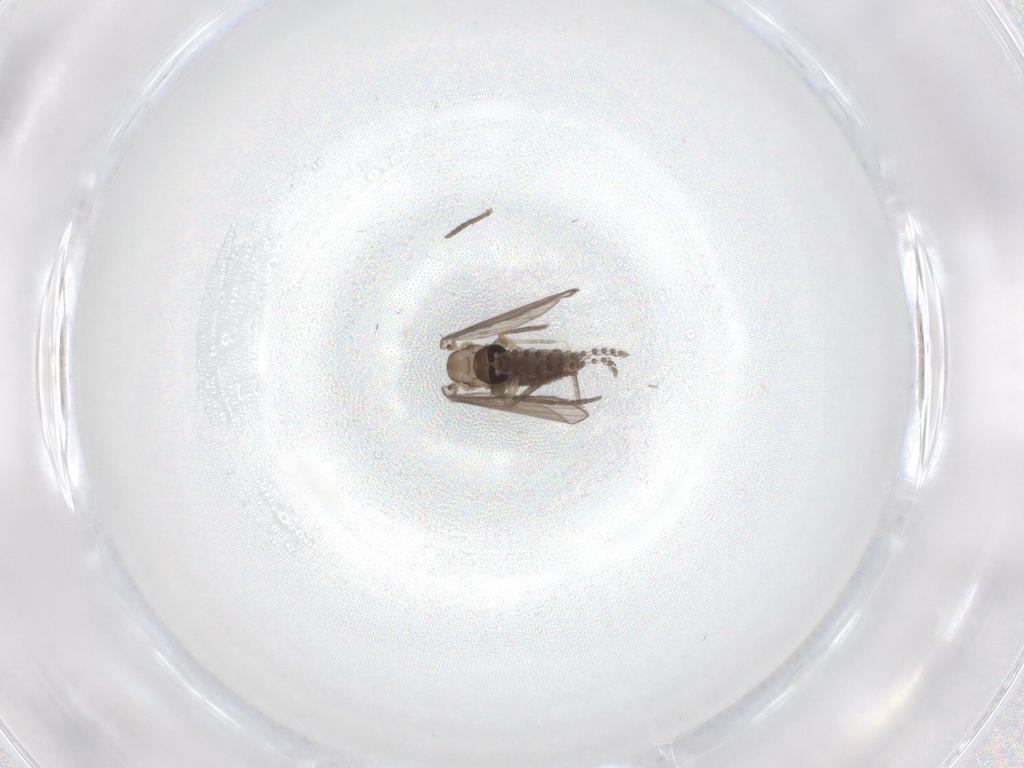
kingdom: Animalia
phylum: Arthropoda
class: Insecta
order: Diptera
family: Psychodidae
